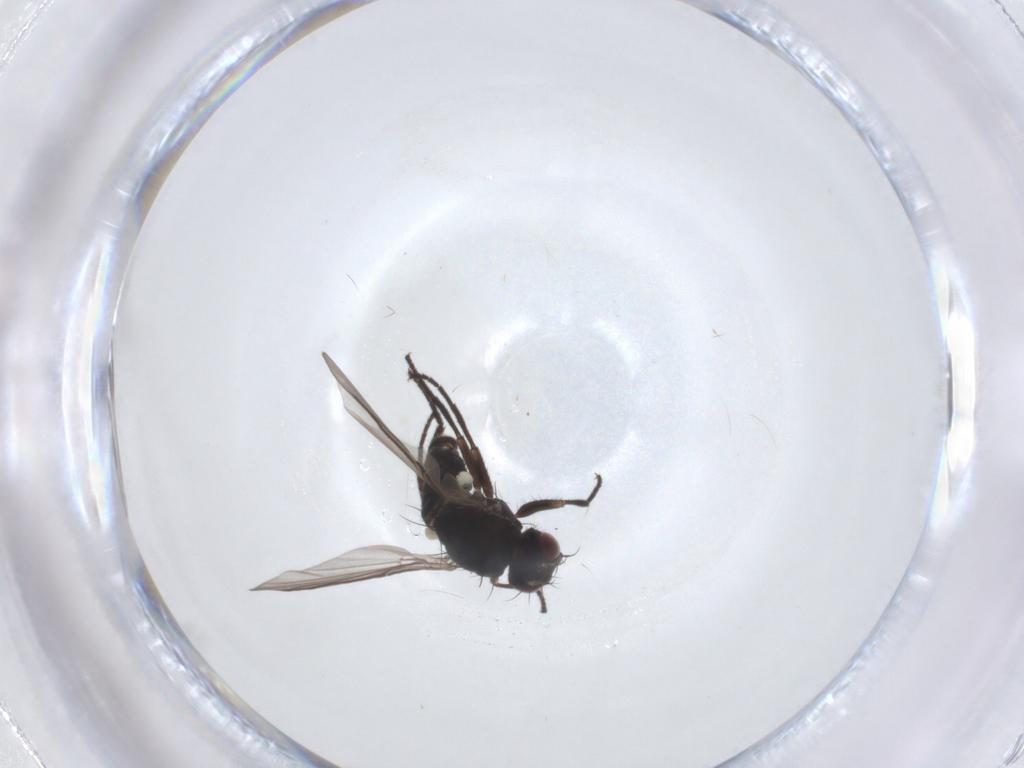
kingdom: Animalia
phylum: Arthropoda
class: Insecta
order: Diptera
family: Agromyzidae
